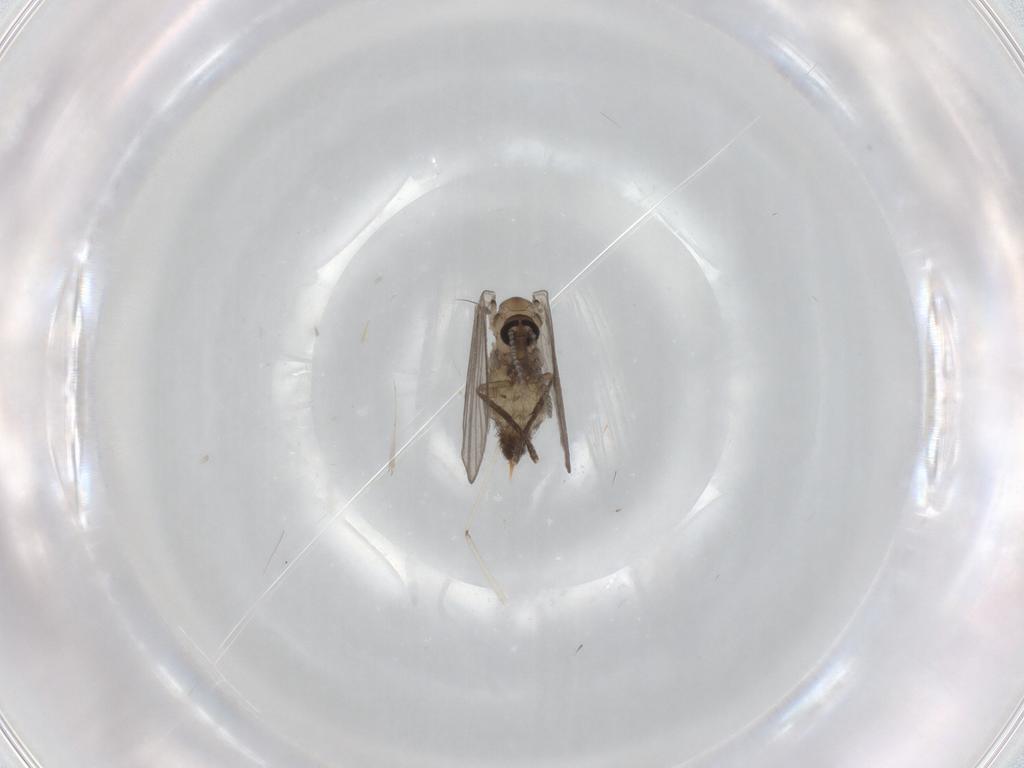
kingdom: Animalia
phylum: Arthropoda
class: Insecta
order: Diptera
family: Psychodidae
